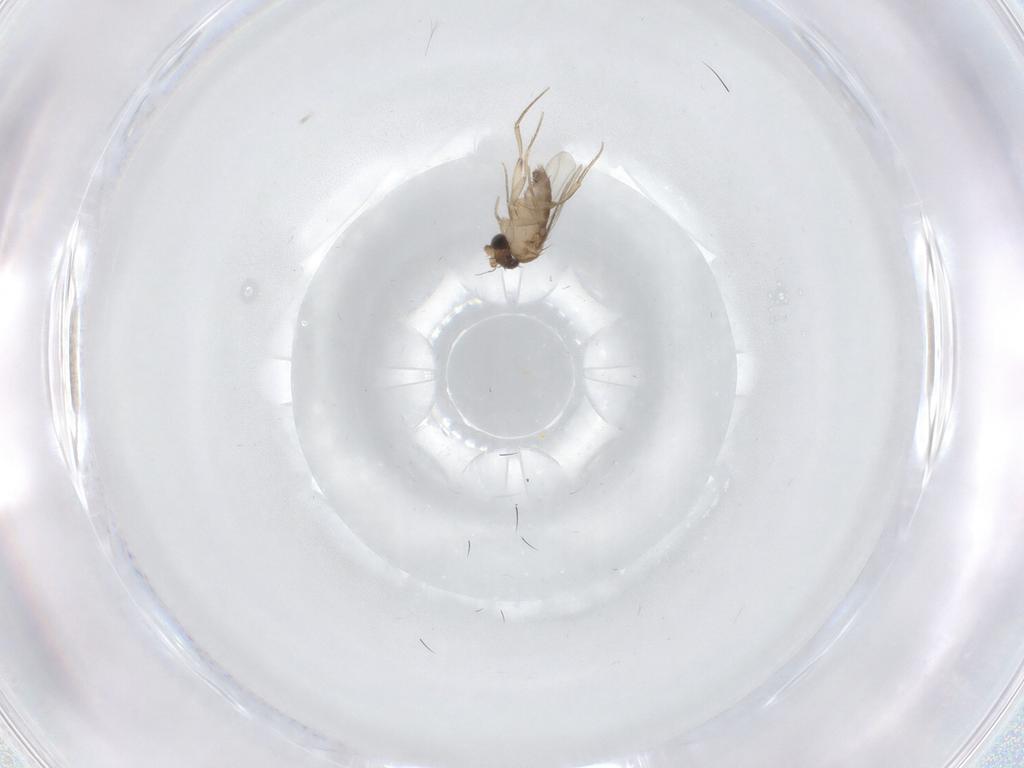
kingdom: Animalia
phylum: Arthropoda
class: Insecta
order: Diptera
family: Phoridae
